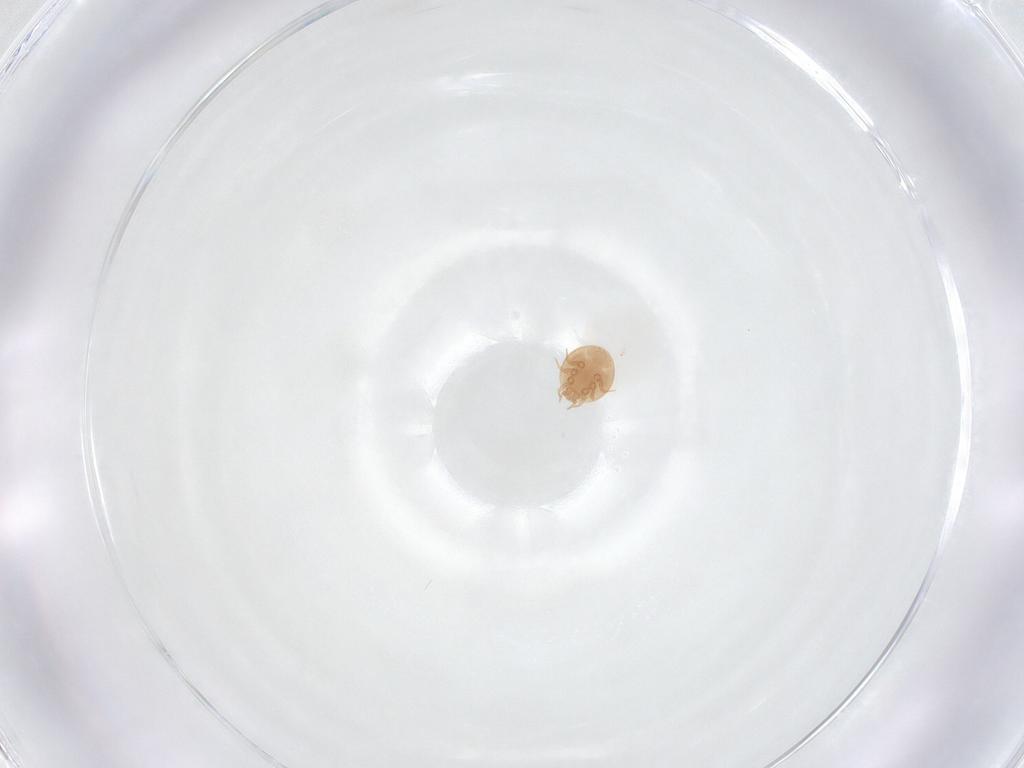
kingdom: Animalia
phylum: Arthropoda
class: Arachnida
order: Mesostigmata
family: Trematuridae
